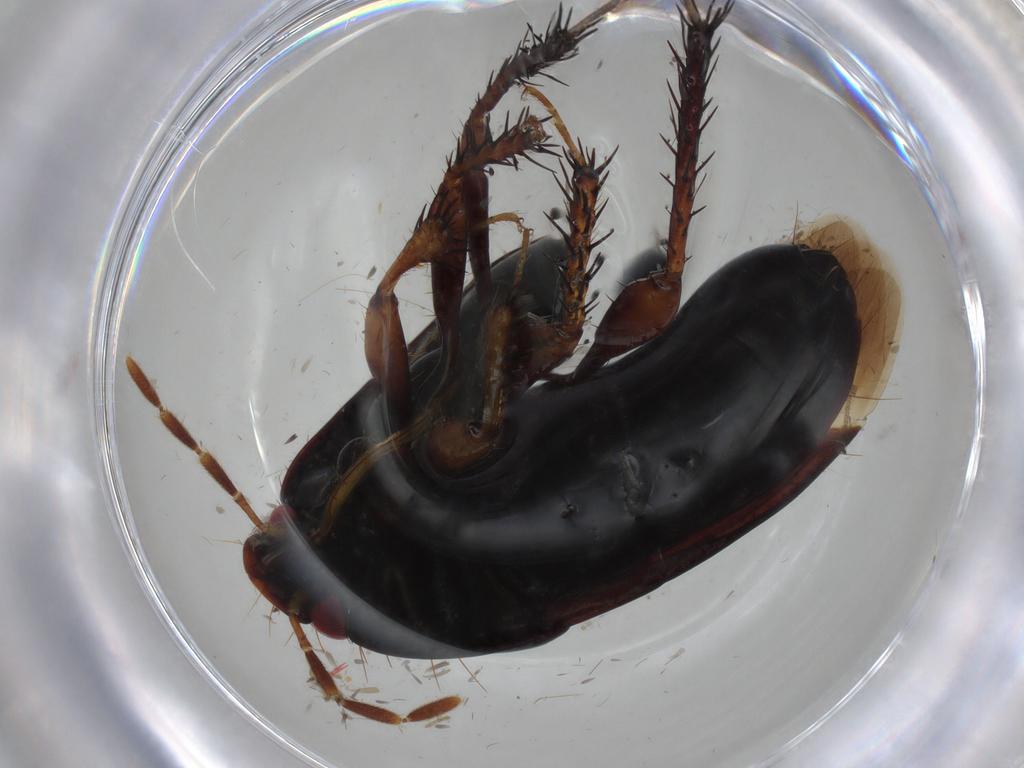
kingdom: Animalia
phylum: Arthropoda
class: Insecta
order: Hemiptera
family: Cydnidae
